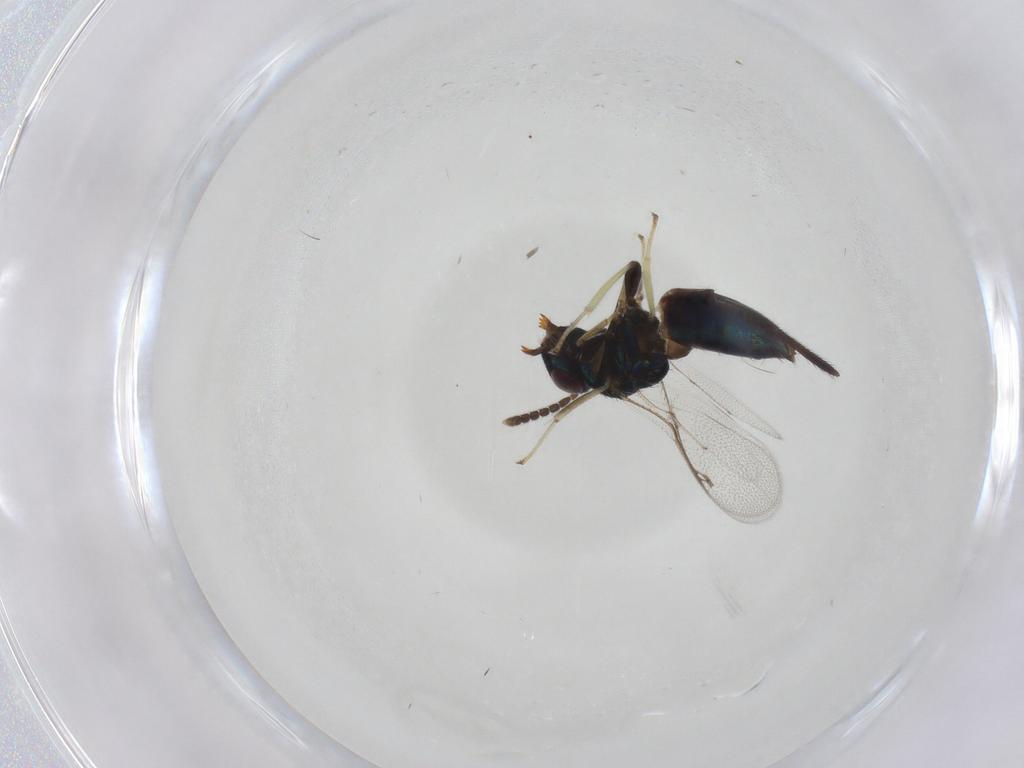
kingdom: Animalia
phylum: Arthropoda
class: Insecta
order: Hymenoptera
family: Pirenidae
